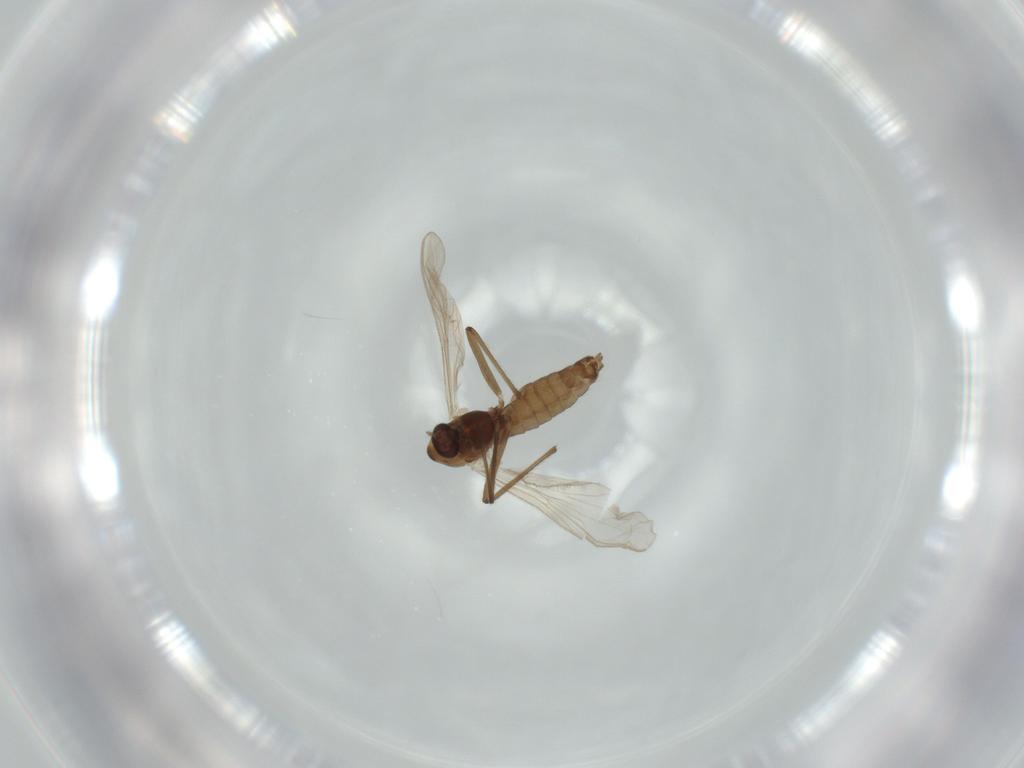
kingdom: Animalia
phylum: Arthropoda
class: Insecta
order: Diptera
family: Chironomidae
